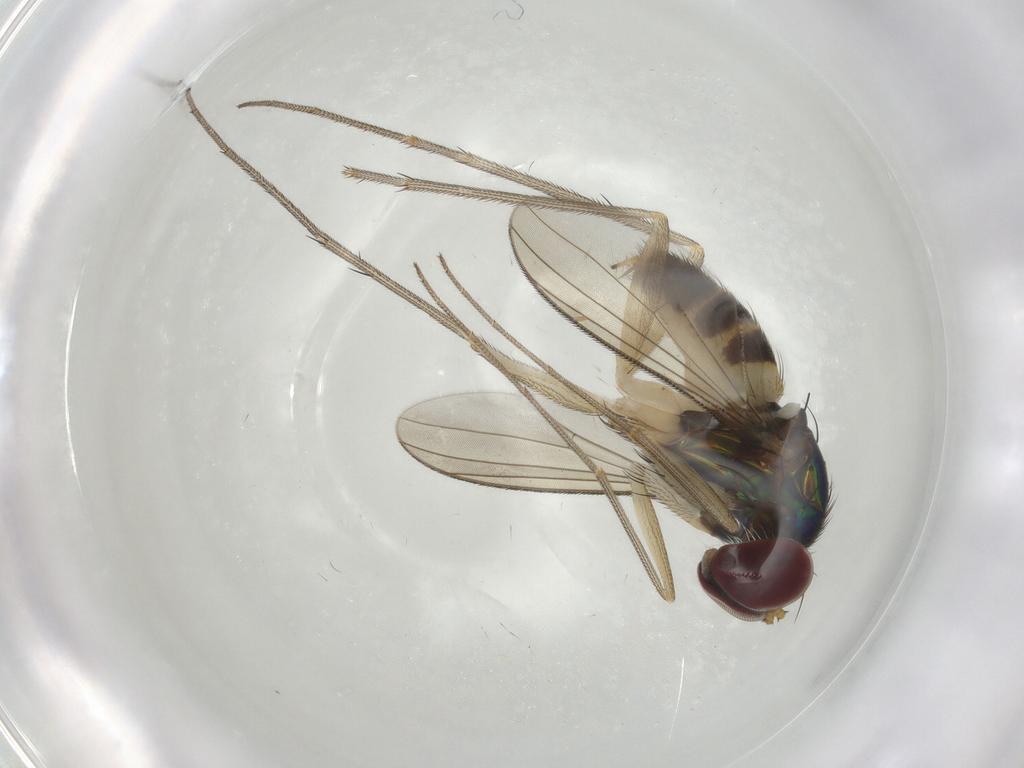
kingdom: Animalia
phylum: Arthropoda
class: Insecta
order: Diptera
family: Dolichopodidae
